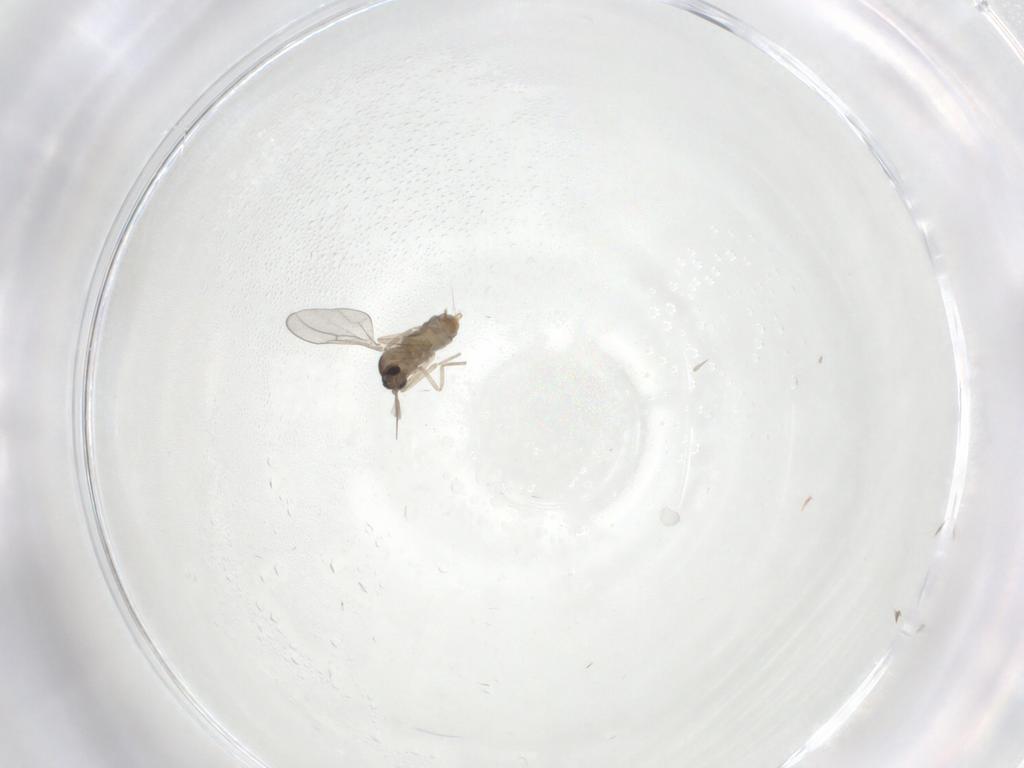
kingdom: Animalia
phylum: Arthropoda
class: Insecta
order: Diptera
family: Cecidomyiidae
